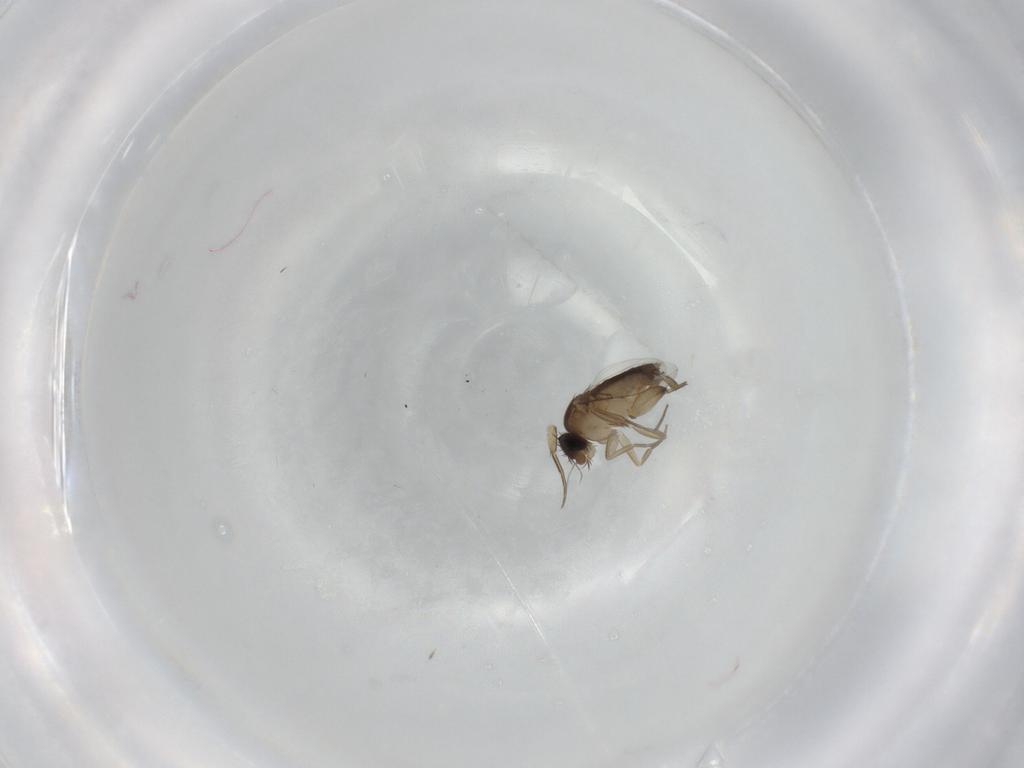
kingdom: Animalia
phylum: Arthropoda
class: Insecta
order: Diptera
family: Phoridae
